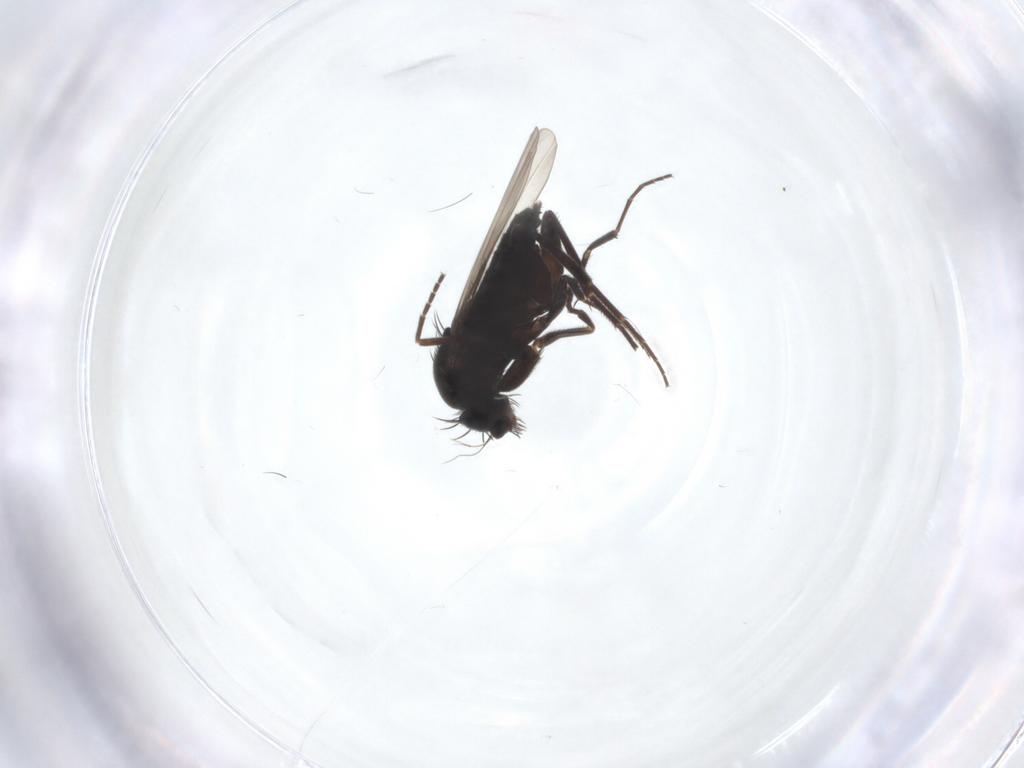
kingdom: Animalia
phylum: Arthropoda
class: Insecta
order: Diptera
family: Phoridae
